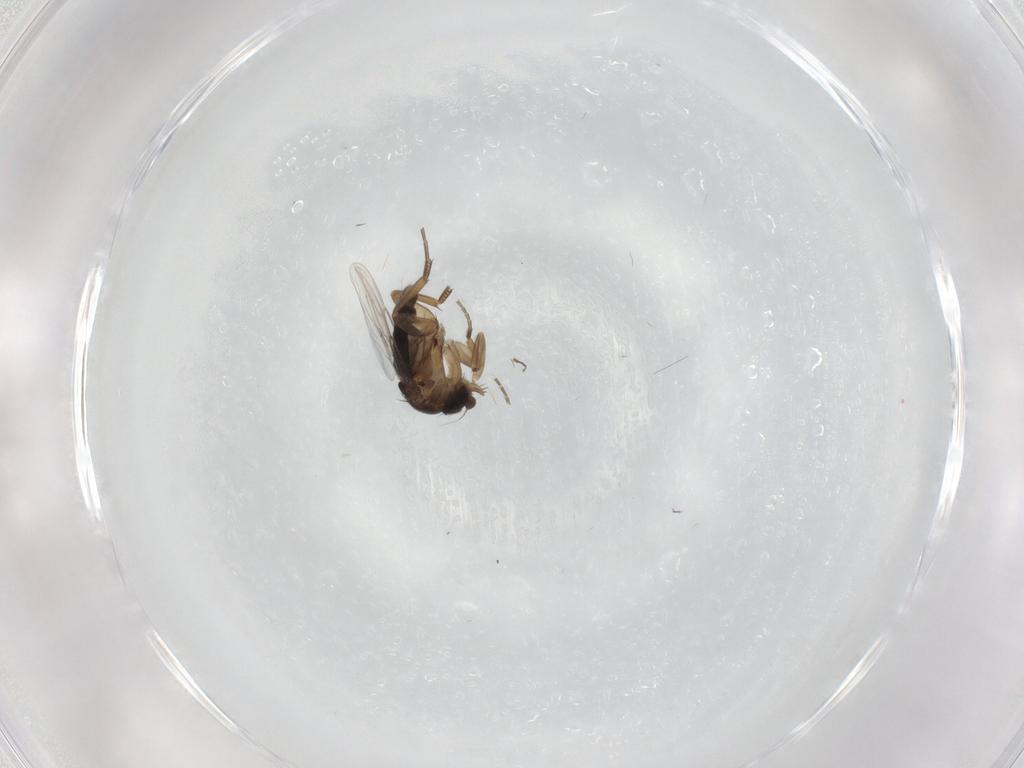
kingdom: Animalia
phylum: Arthropoda
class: Insecta
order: Diptera
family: Phoridae
